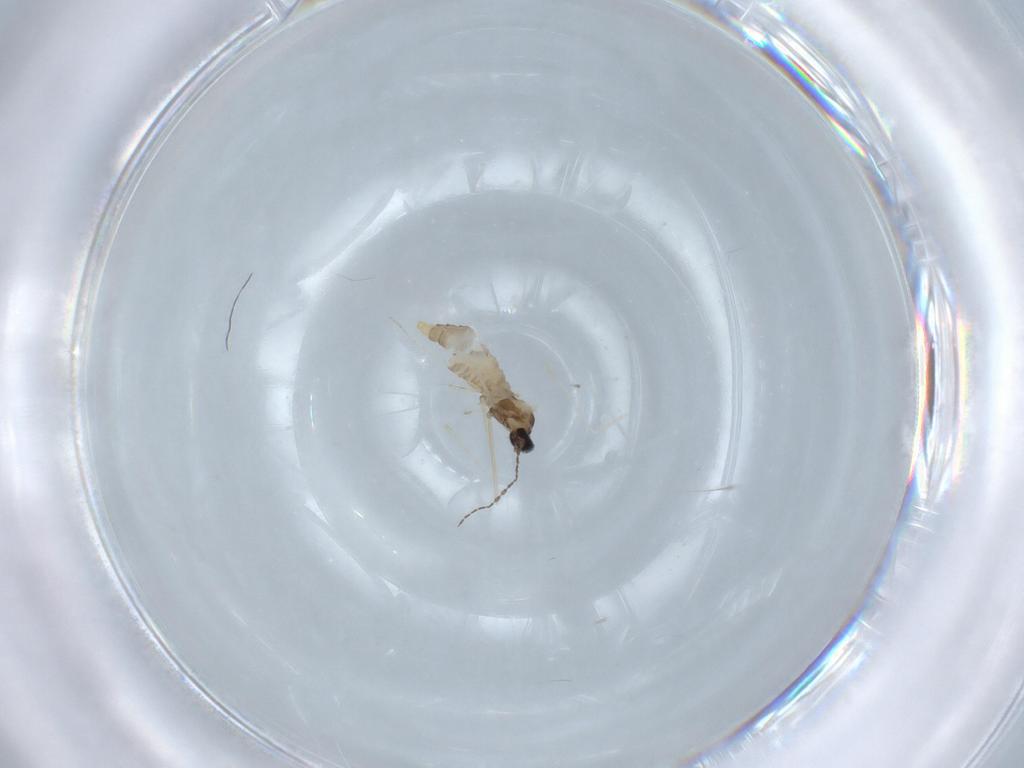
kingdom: Animalia
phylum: Arthropoda
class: Insecta
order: Diptera
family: Cecidomyiidae
